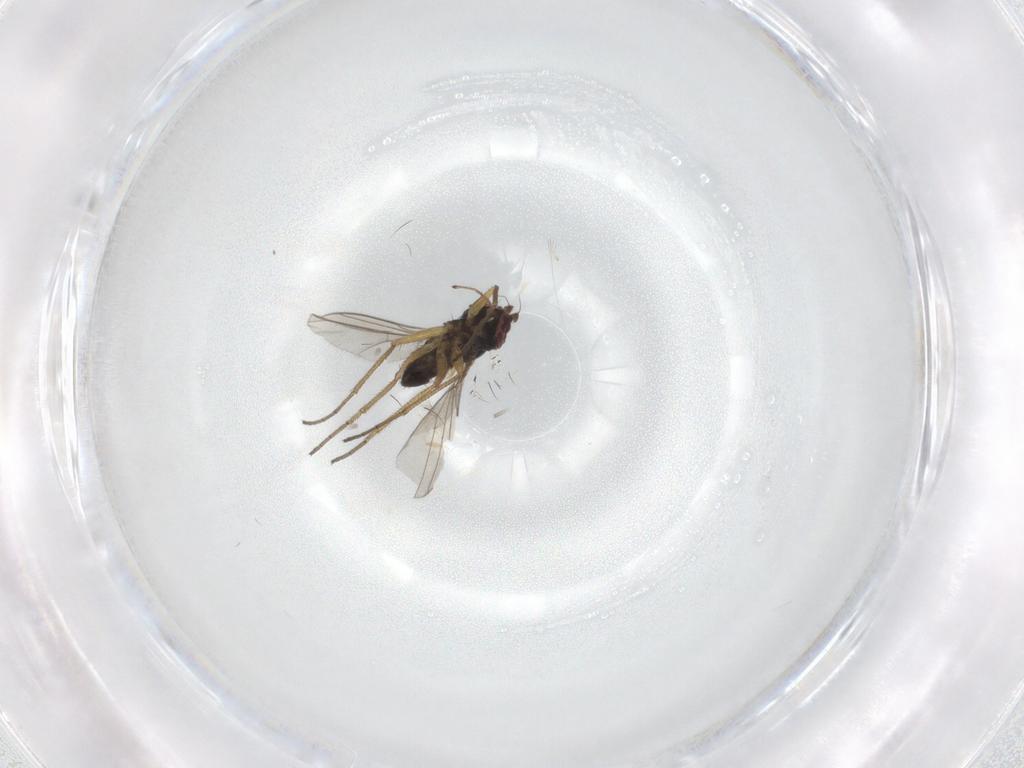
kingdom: Animalia
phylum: Arthropoda
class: Insecta
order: Diptera
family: Dolichopodidae
